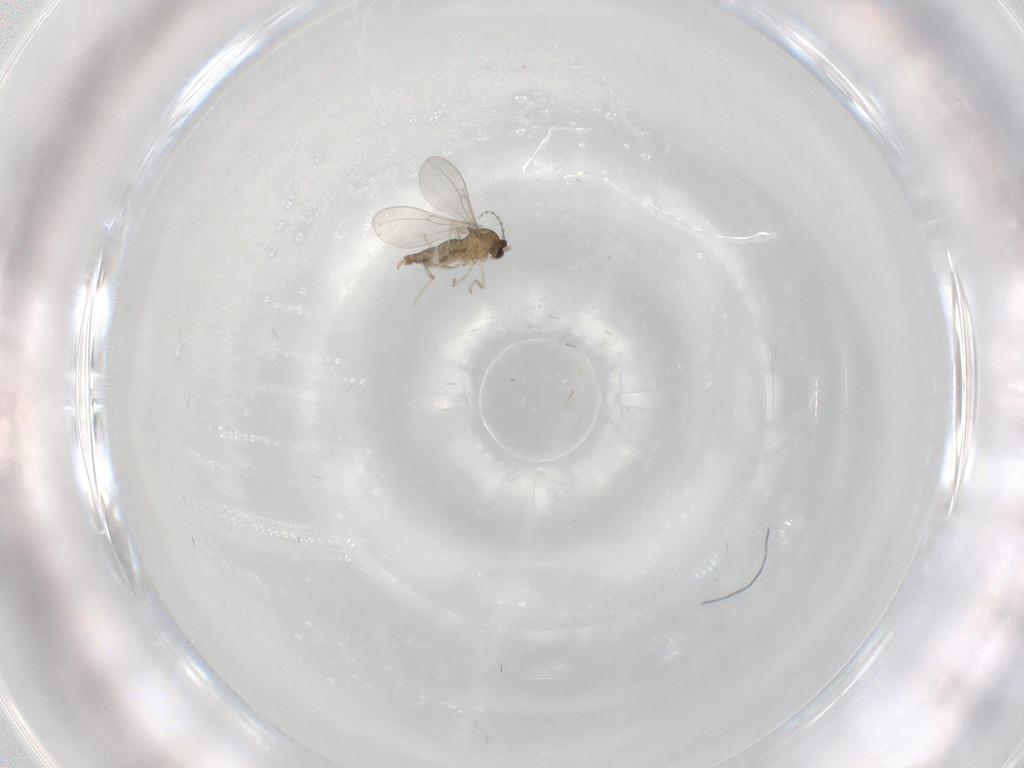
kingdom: Animalia
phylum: Arthropoda
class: Insecta
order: Diptera
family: Cecidomyiidae
